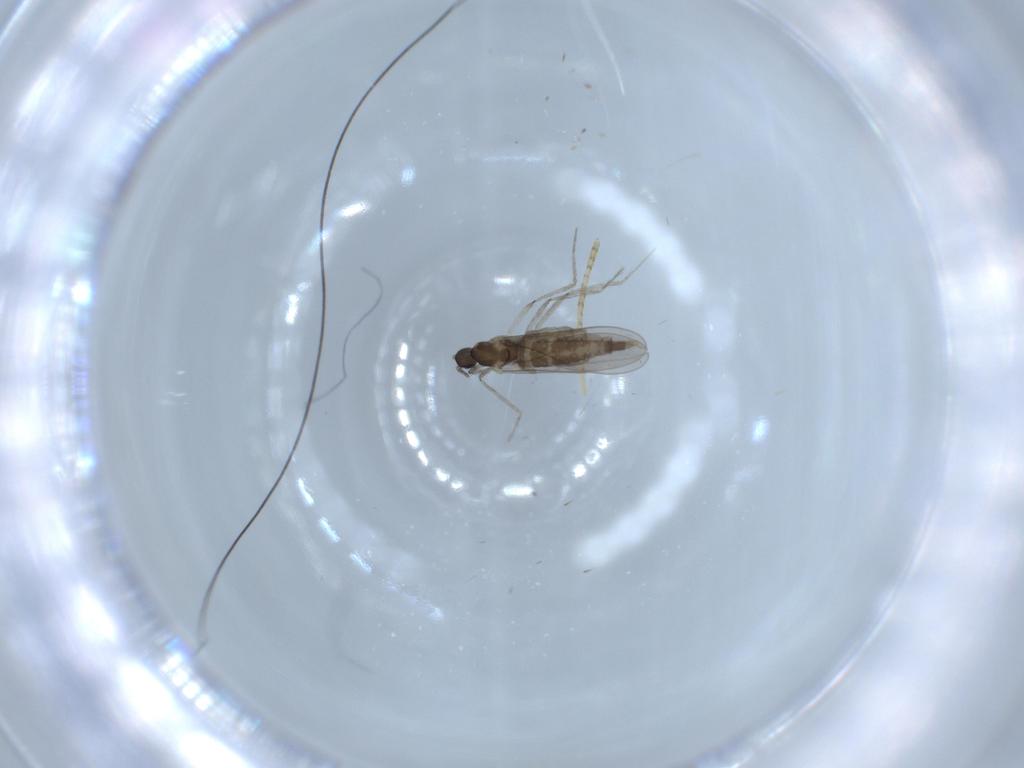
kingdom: Animalia
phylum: Arthropoda
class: Insecta
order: Diptera
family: Cecidomyiidae
